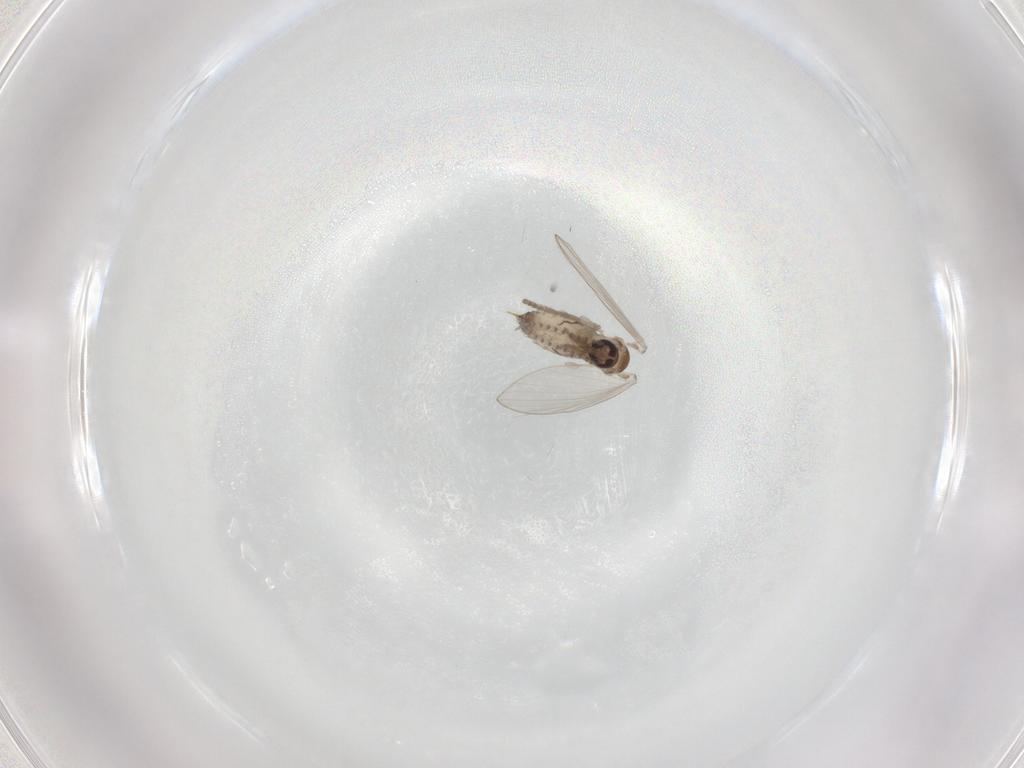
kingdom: Animalia
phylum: Arthropoda
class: Insecta
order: Diptera
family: Psychodidae
